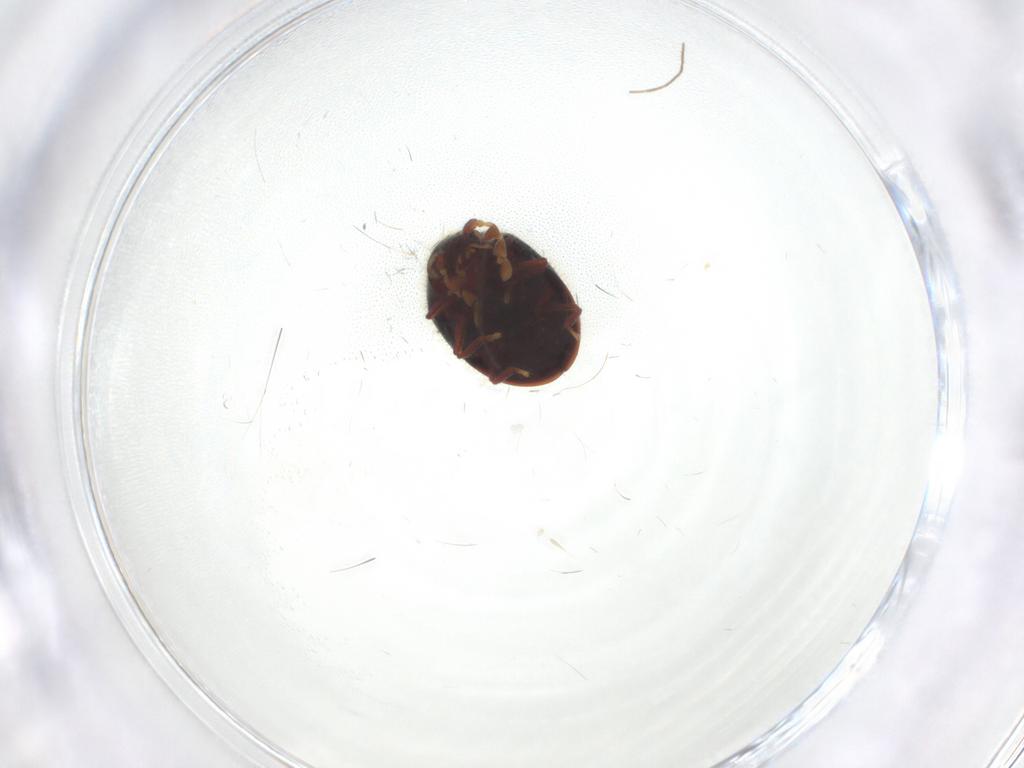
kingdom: Animalia
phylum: Arthropoda
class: Insecta
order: Coleoptera
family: Ptinidae
